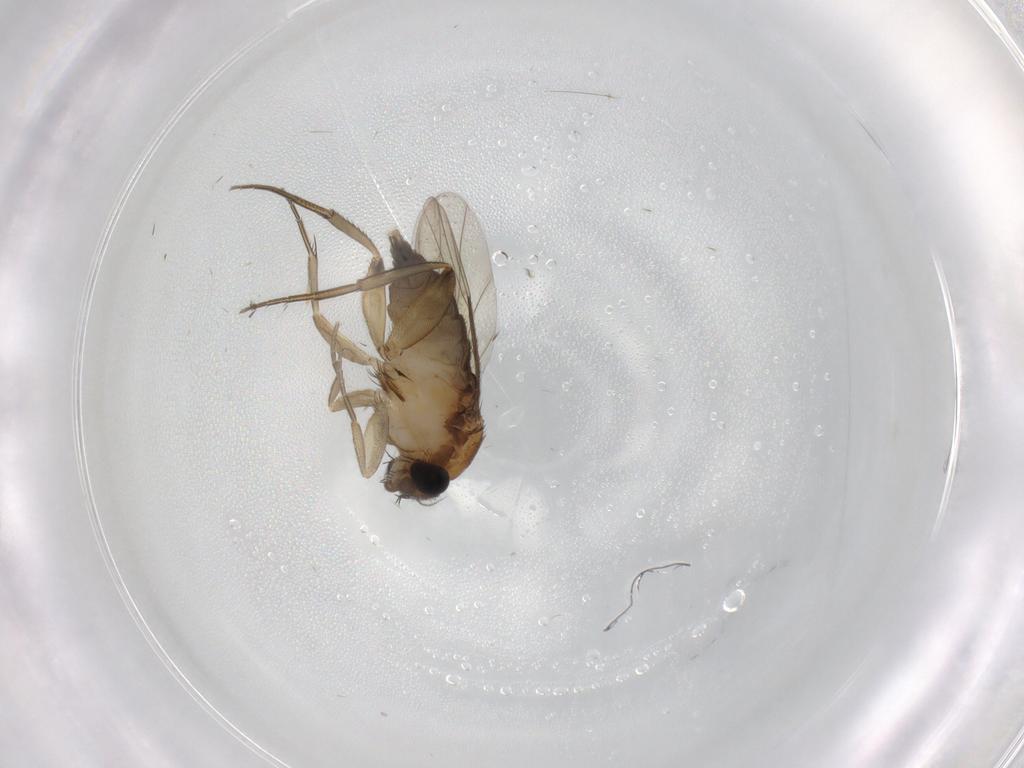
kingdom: Animalia
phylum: Arthropoda
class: Insecta
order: Diptera
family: Phoridae
